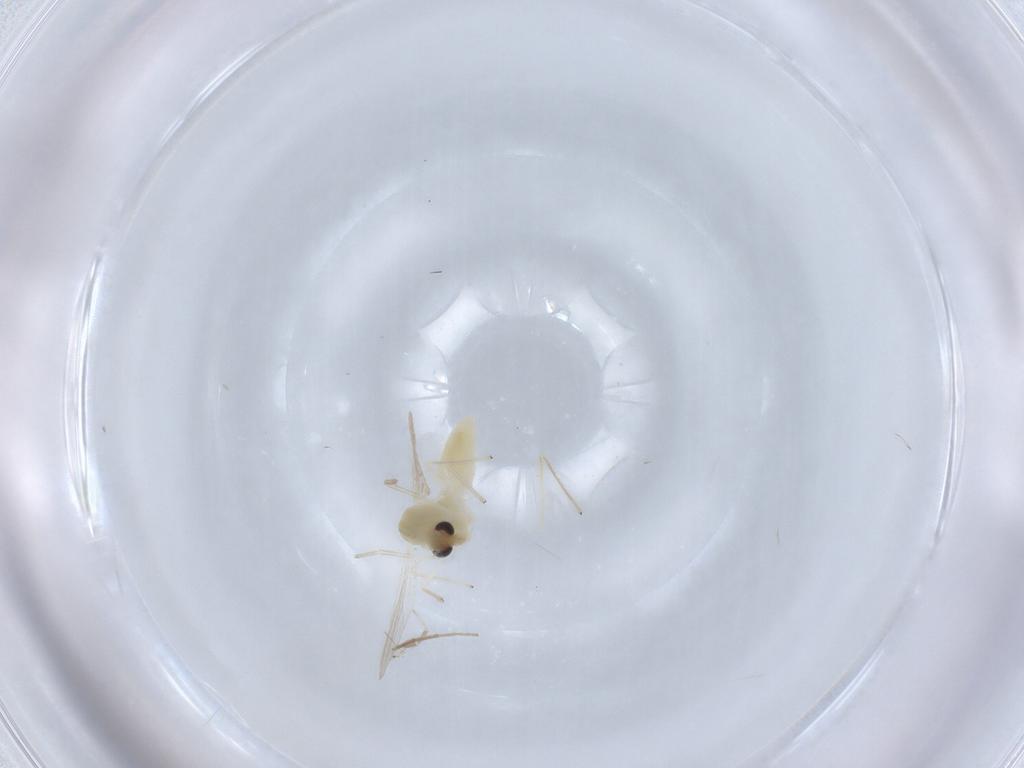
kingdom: Animalia
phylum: Arthropoda
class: Insecta
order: Diptera
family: Chironomidae
